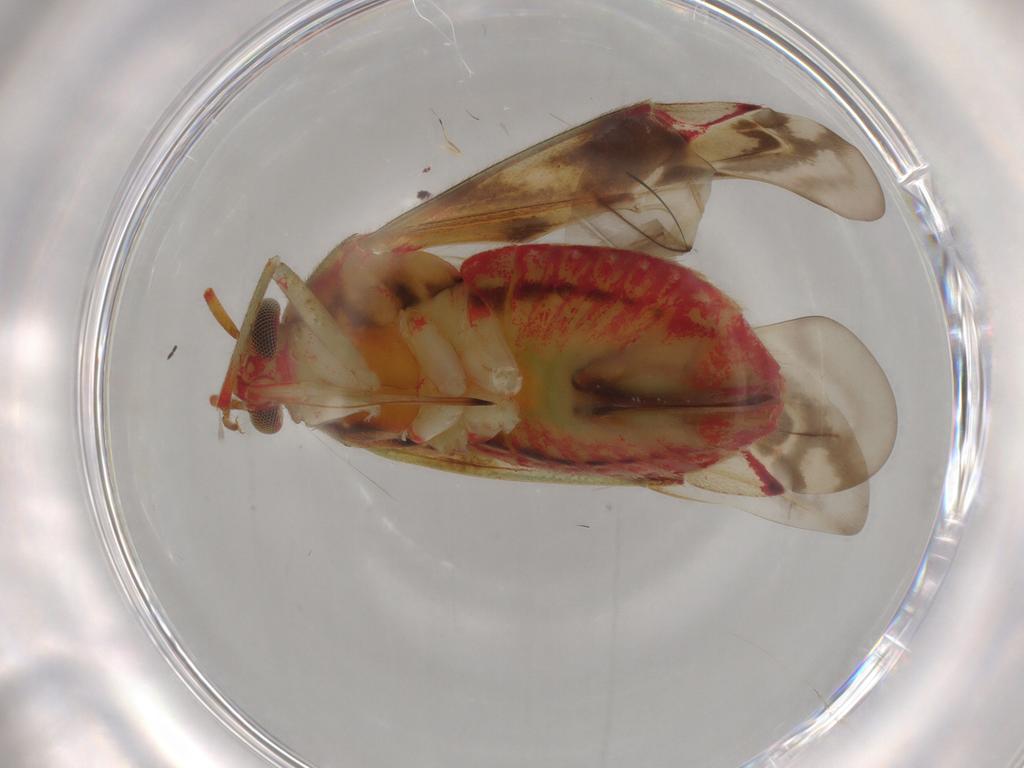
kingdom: Animalia
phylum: Arthropoda
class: Insecta
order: Hemiptera
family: Miridae
